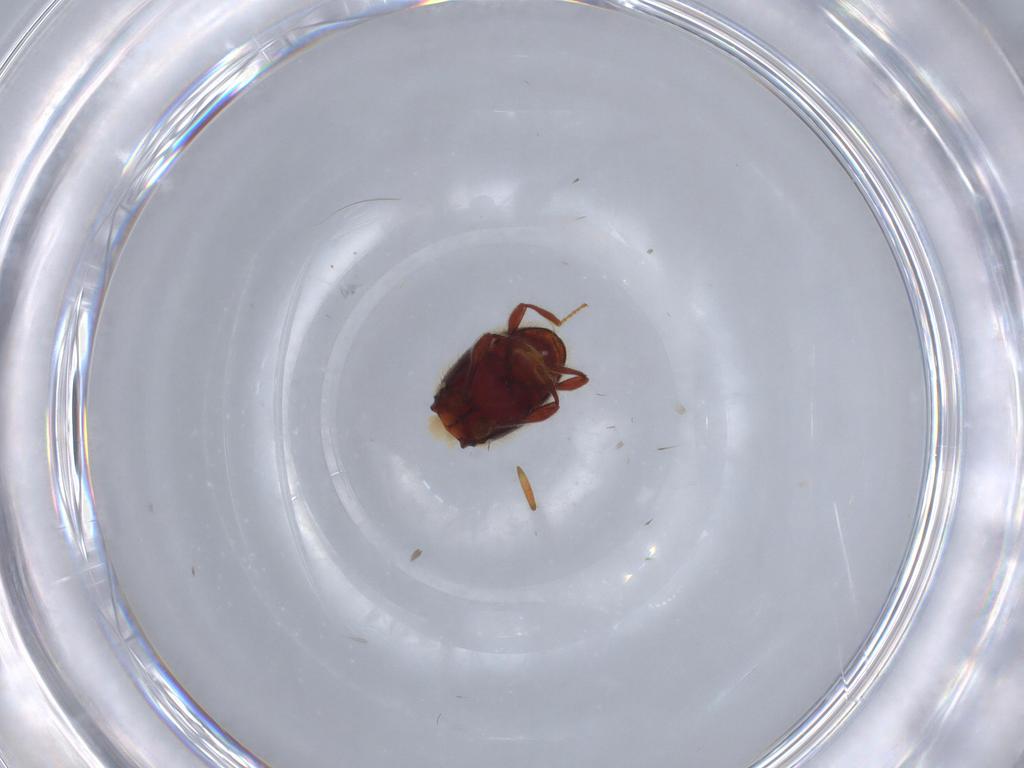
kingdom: Animalia
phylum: Arthropoda
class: Insecta
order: Coleoptera
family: Staphylinidae
